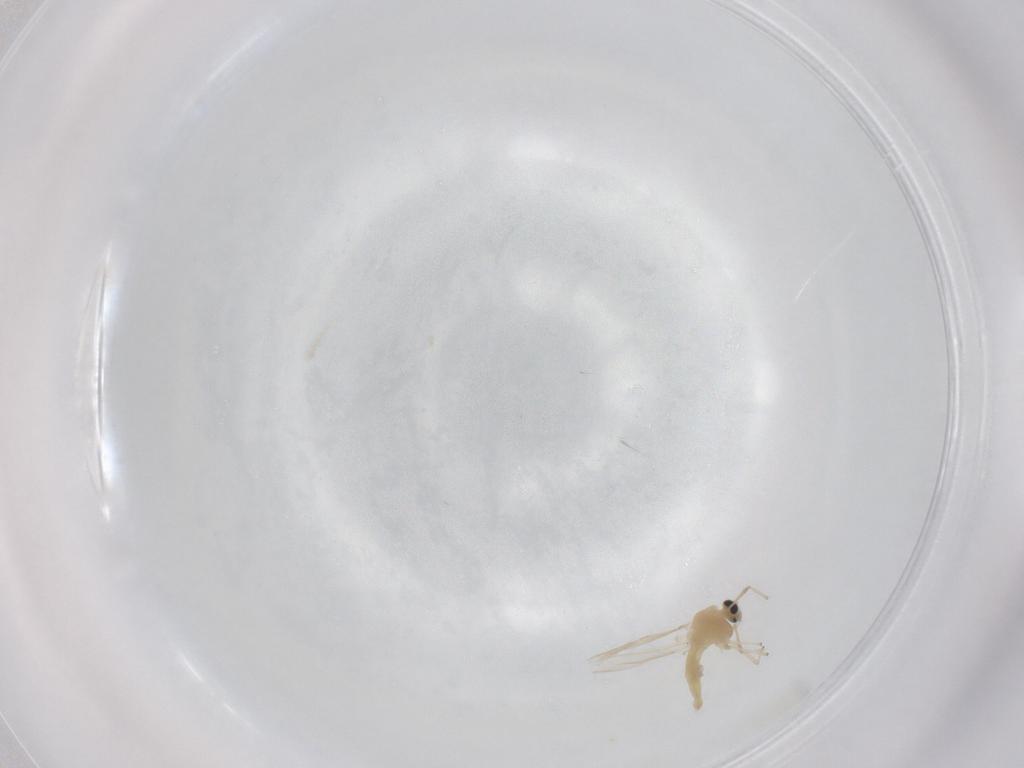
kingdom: Animalia
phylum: Arthropoda
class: Insecta
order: Diptera
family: Chironomidae
